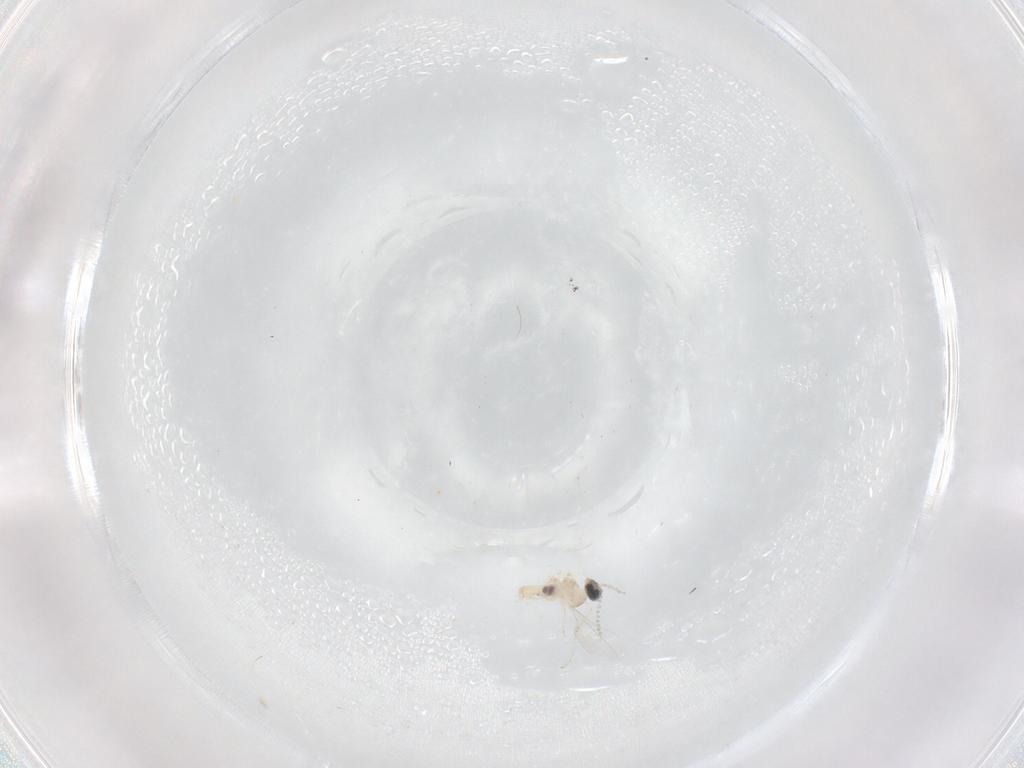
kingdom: Animalia
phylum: Arthropoda
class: Insecta
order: Diptera
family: Cecidomyiidae
